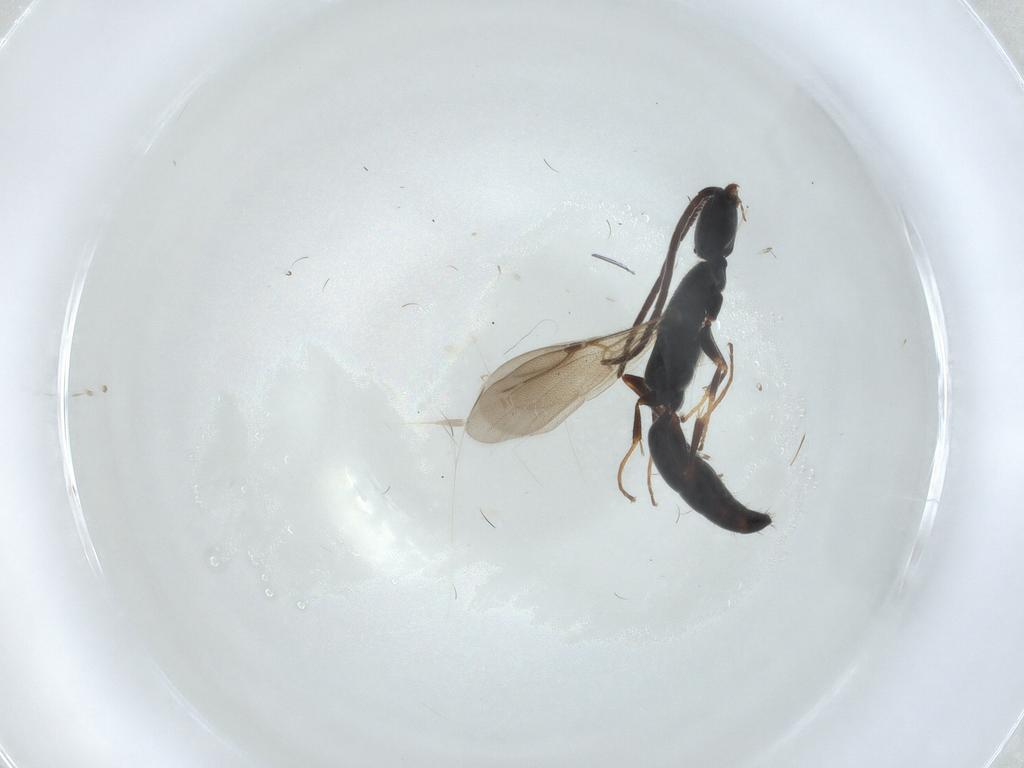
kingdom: Animalia
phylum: Arthropoda
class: Insecta
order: Hymenoptera
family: Bethylidae
